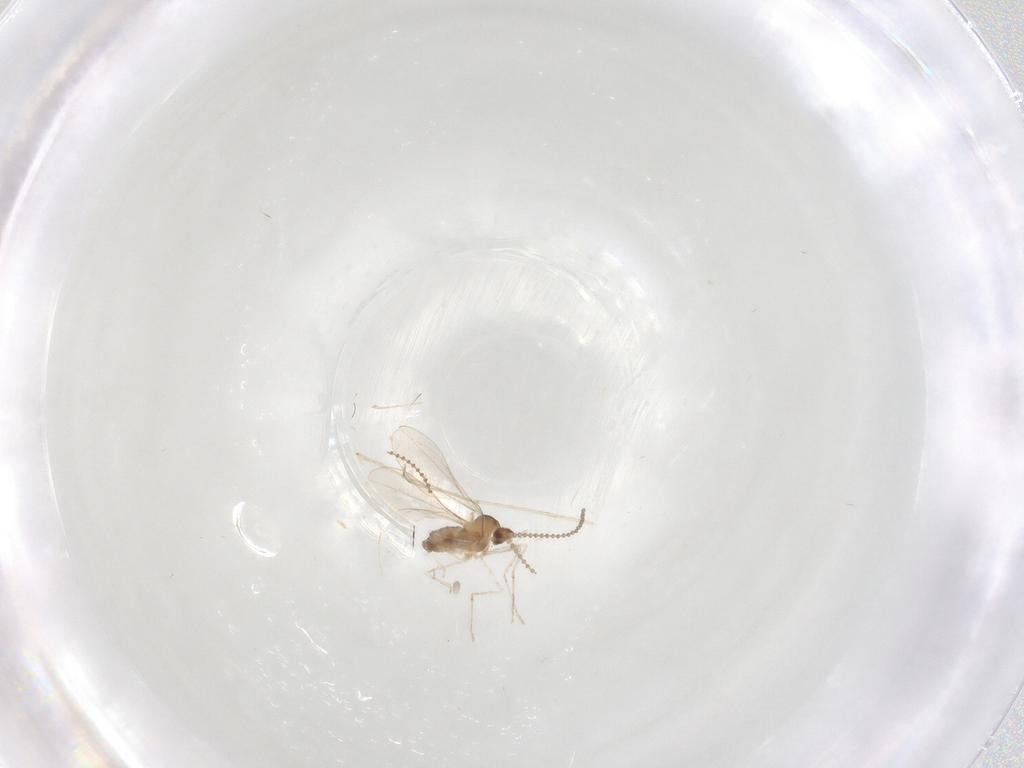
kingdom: Animalia
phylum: Arthropoda
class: Insecta
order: Diptera
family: Cecidomyiidae
